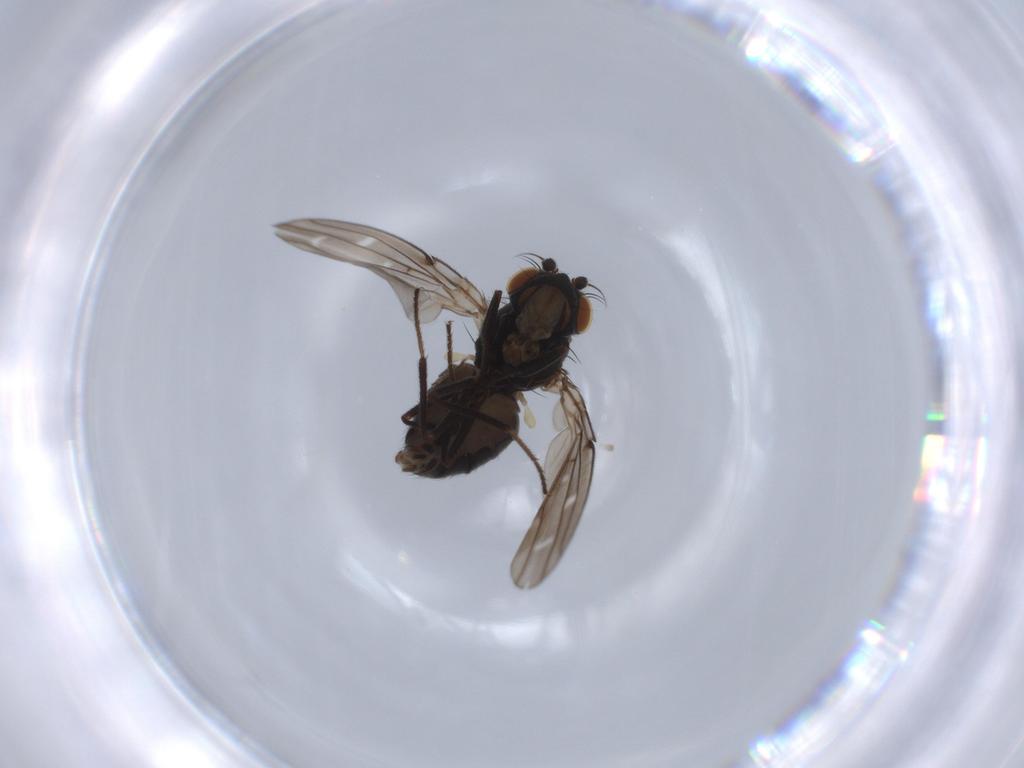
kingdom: Animalia
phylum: Arthropoda
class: Insecta
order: Diptera
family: Ephydridae
